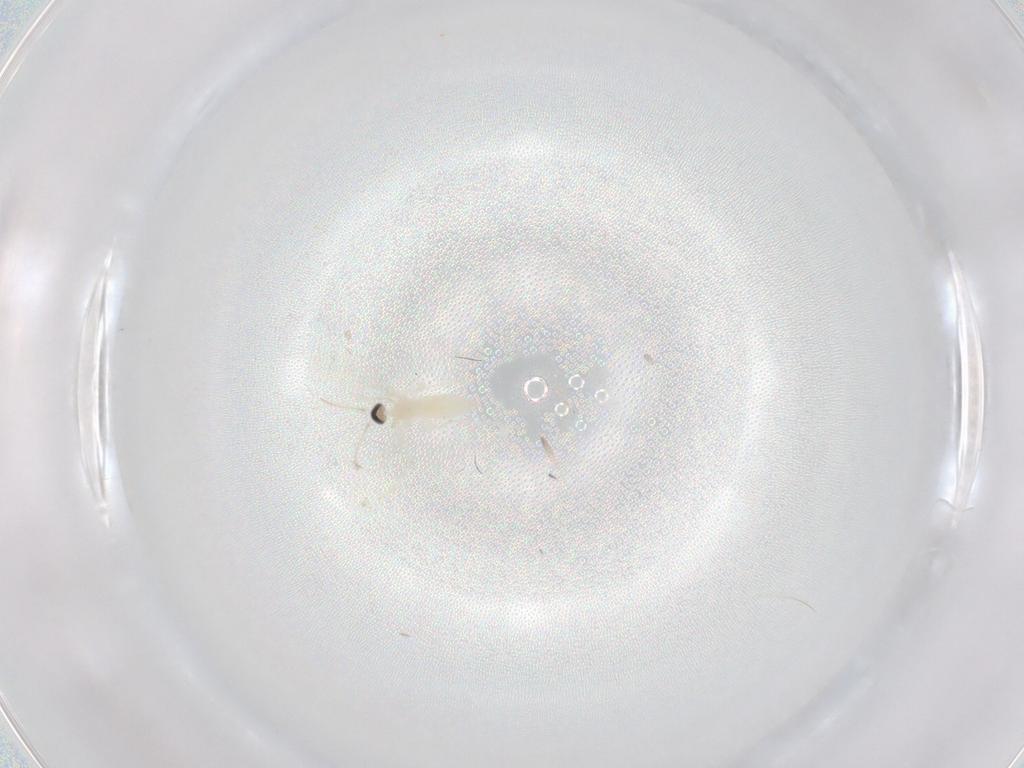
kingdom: Animalia
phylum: Arthropoda
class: Insecta
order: Diptera
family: Cecidomyiidae
